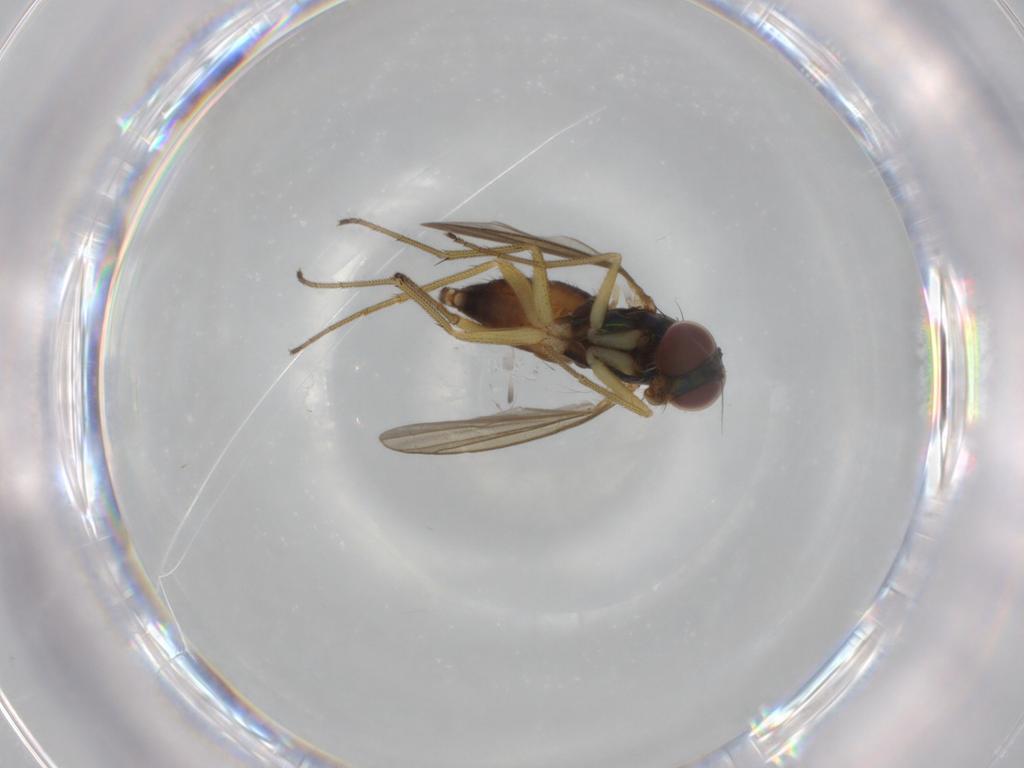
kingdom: Animalia
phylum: Arthropoda
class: Insecta
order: Diptera
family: Dolichopodidae
